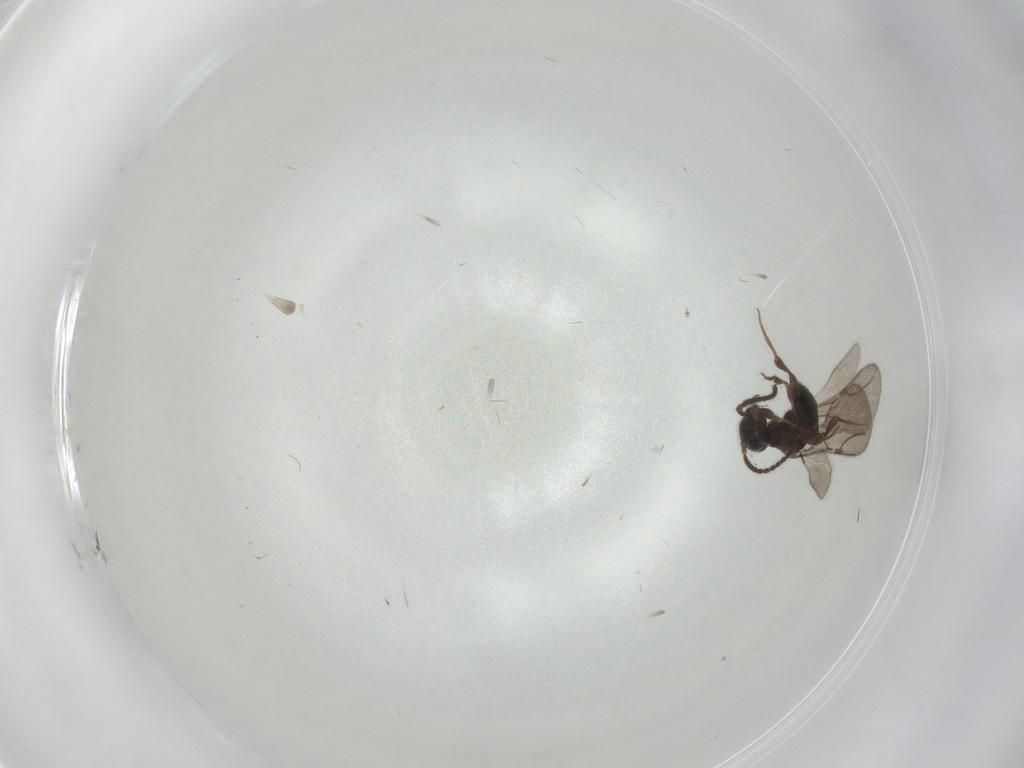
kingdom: Animalia
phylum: Arthropoda
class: Insecta
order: Hymenoptera
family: Bethylidae
